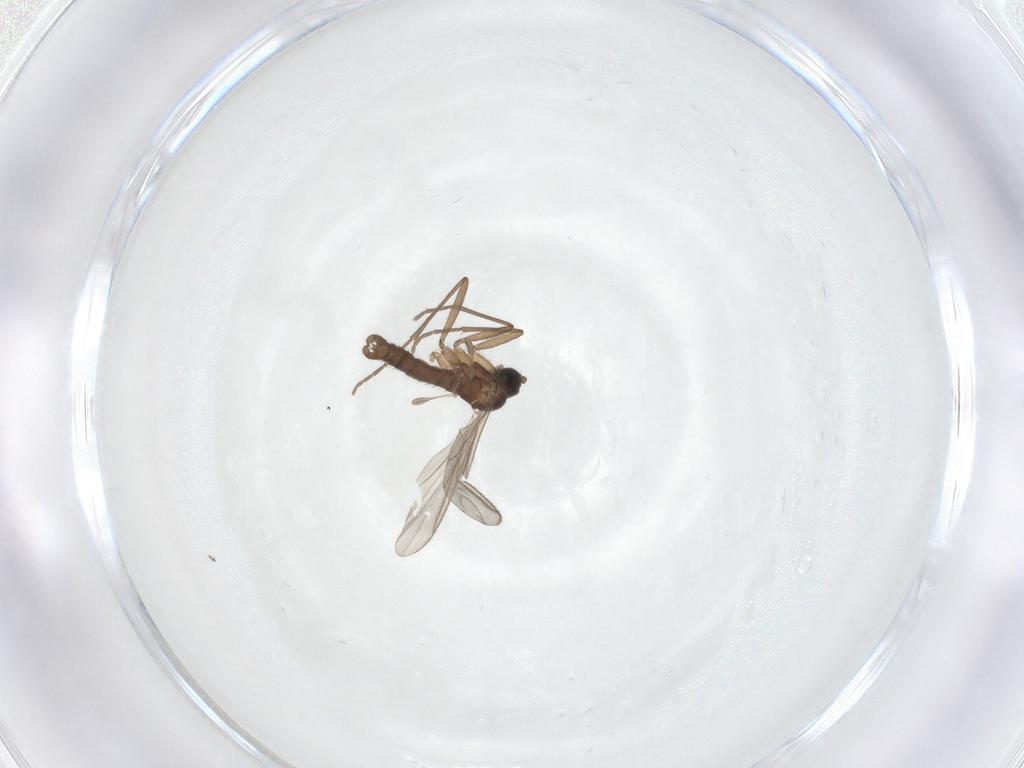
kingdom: Animalia
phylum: Arthropoda
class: Insecta
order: Diptera
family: Sciaridae
